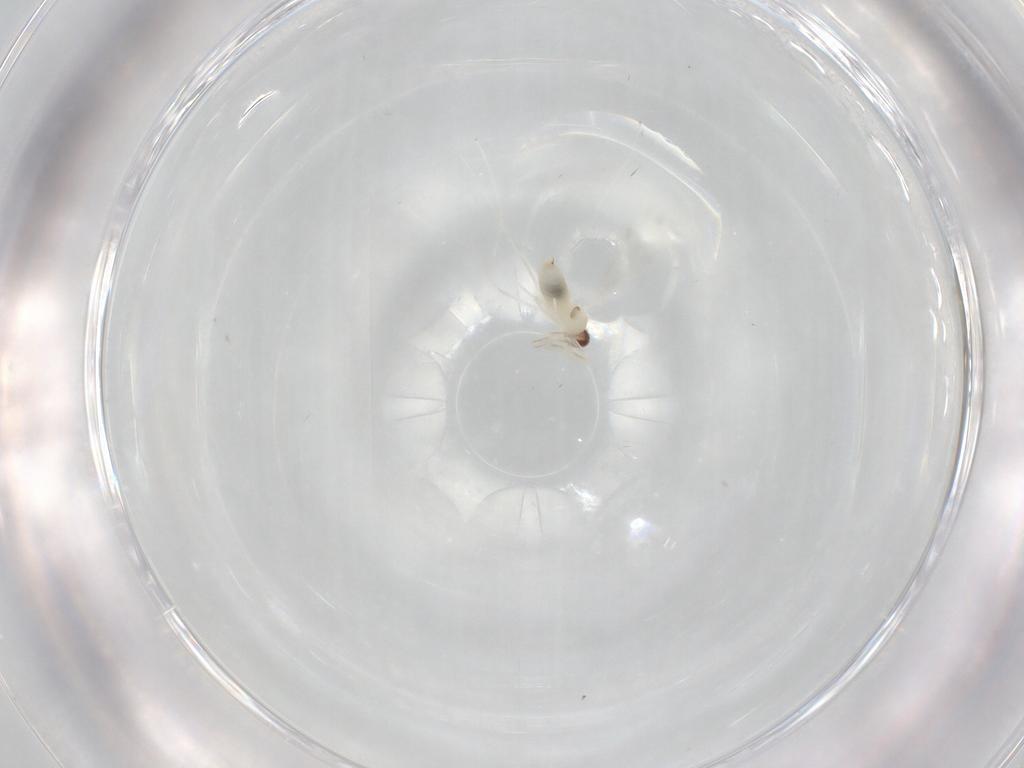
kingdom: Animalia
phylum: Arthropoda
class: Insecta
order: Diptera
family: Cecidomyiidae
